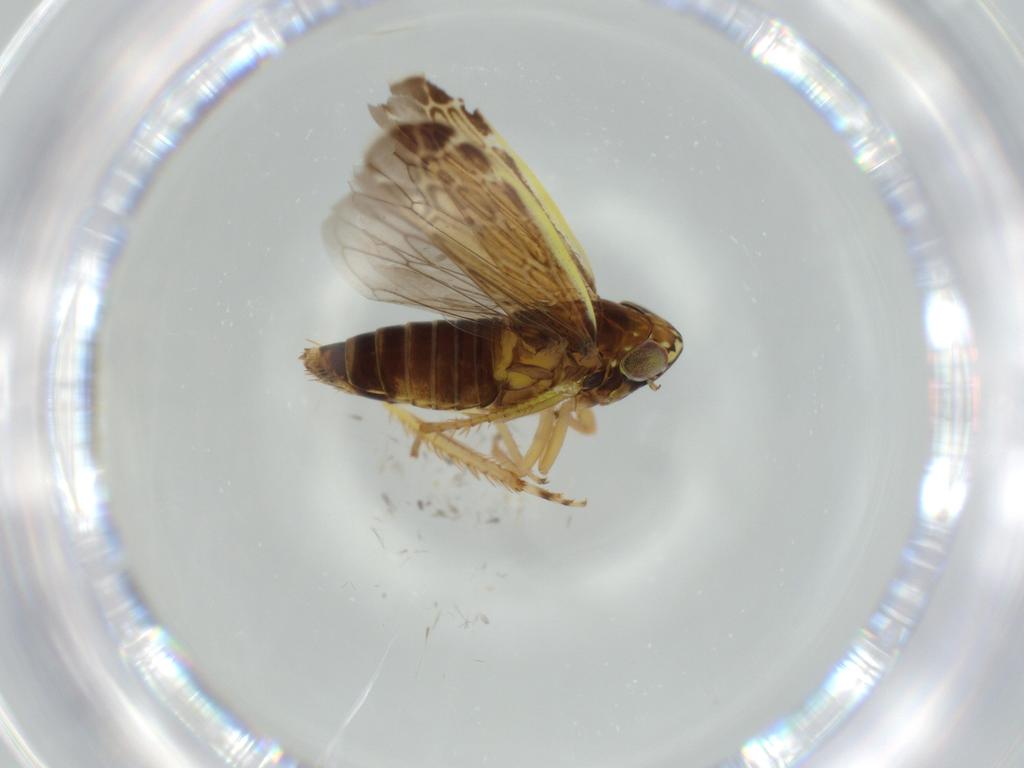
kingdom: Animalia
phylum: Arthropoda
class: Insecta
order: Hemiptera
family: Cicadellidae
